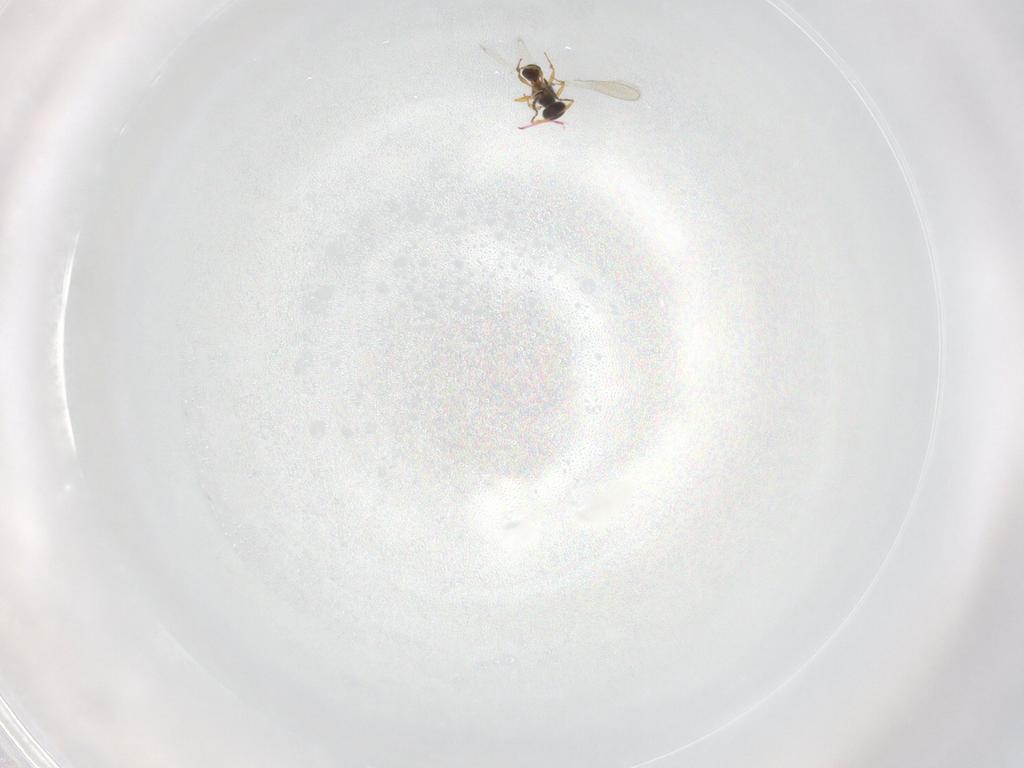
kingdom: Animalia
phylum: Arthropoda
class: Insecta
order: Hymenoptera
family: Platygastridae
